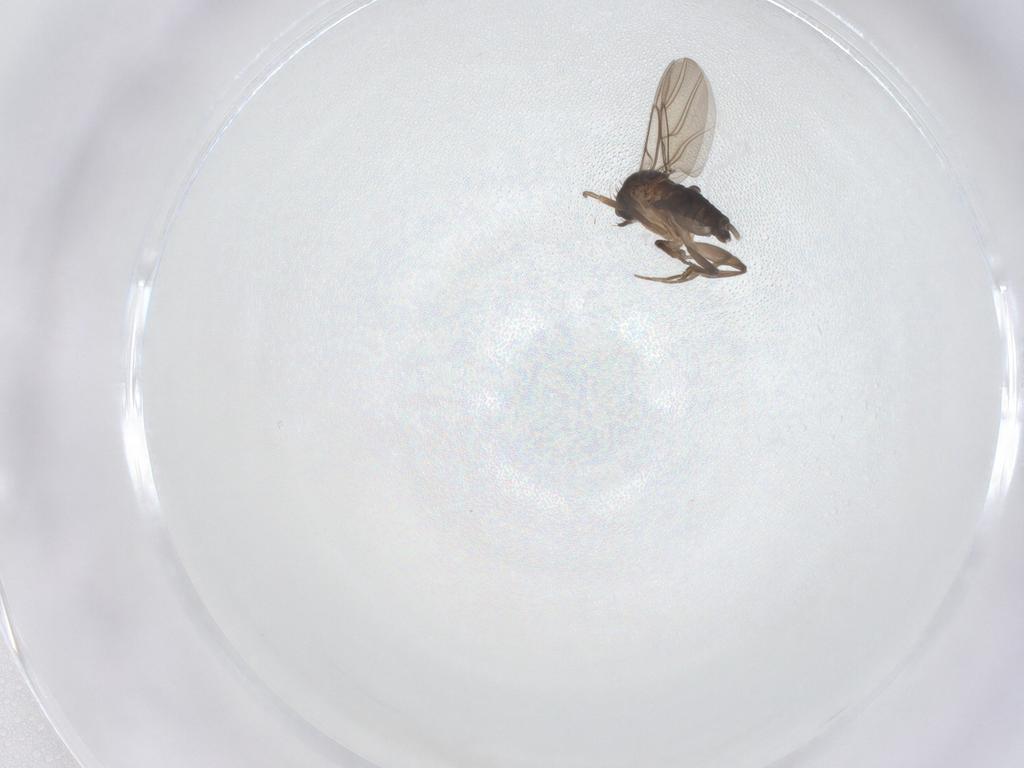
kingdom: Animalia
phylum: Arthropoda
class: Insecta
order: Diptera
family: Phoridae
